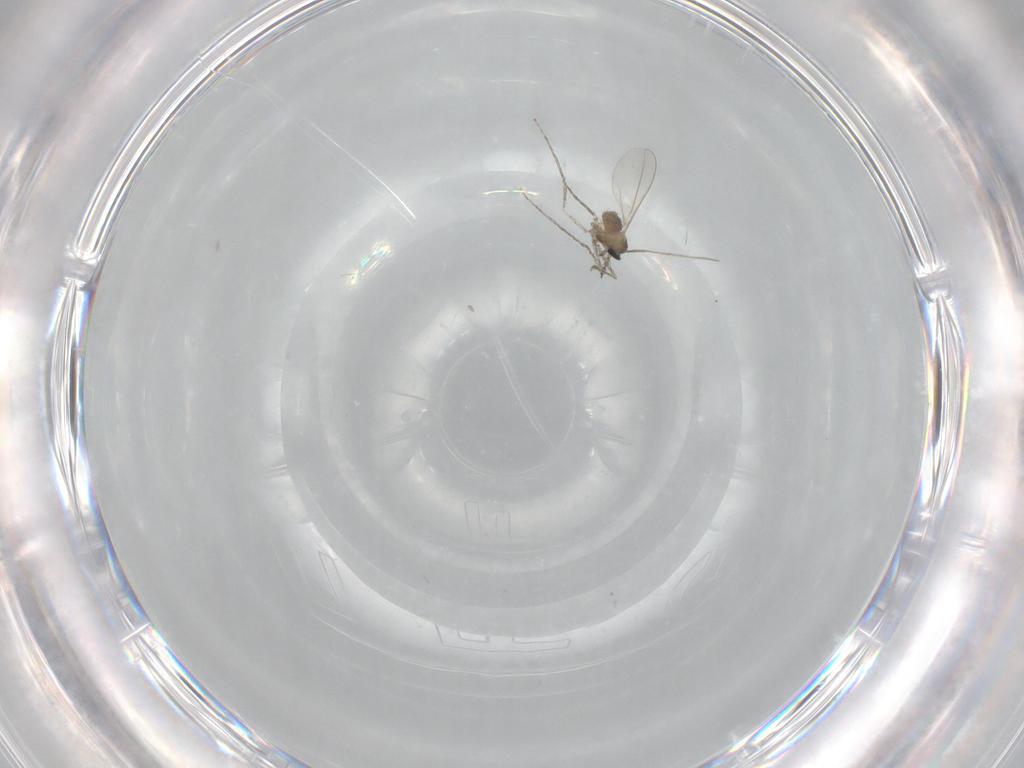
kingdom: Animalia
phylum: Arthropoda
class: Insecta
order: Diptera
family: Cecidomyiidae
